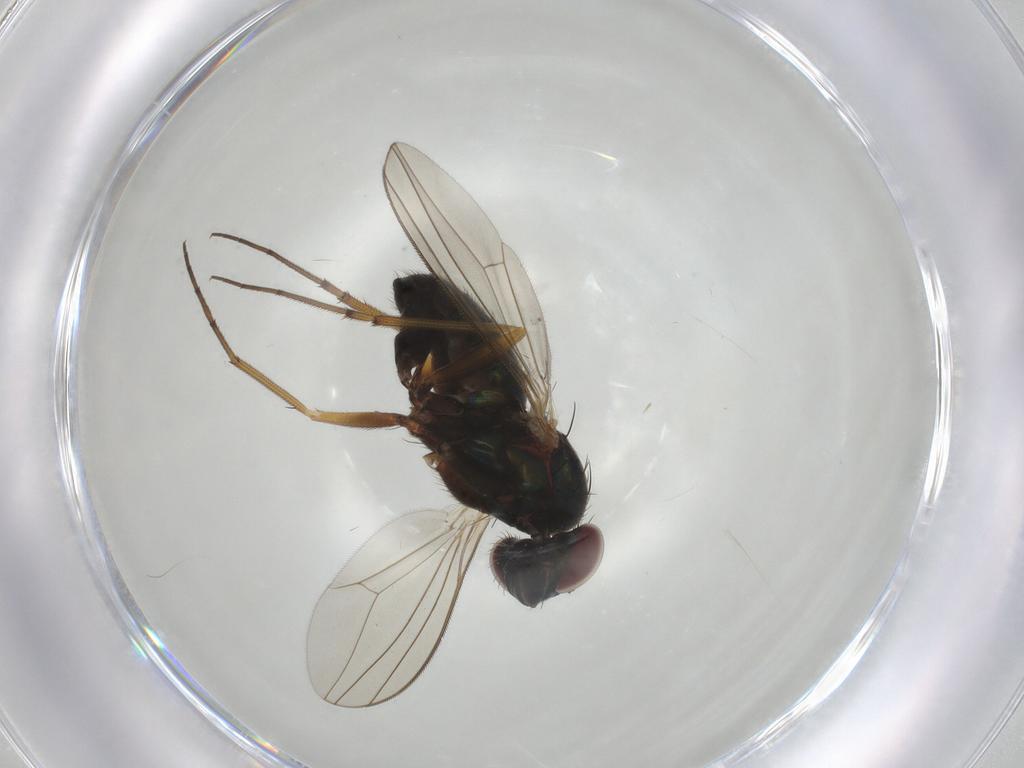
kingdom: Animalia
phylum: Arthropoda
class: Insecta
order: Diptera
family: Dolichopodidae
